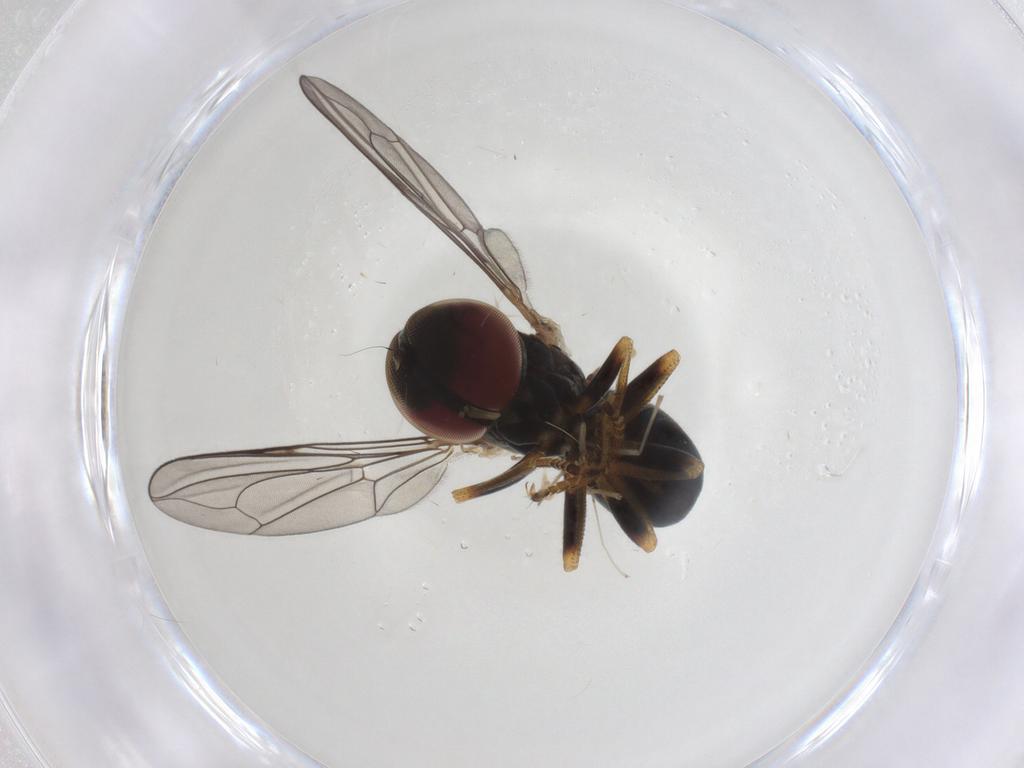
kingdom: Animalia
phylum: Arthropoda
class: Insecta
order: Diptera
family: Pipunculidae
